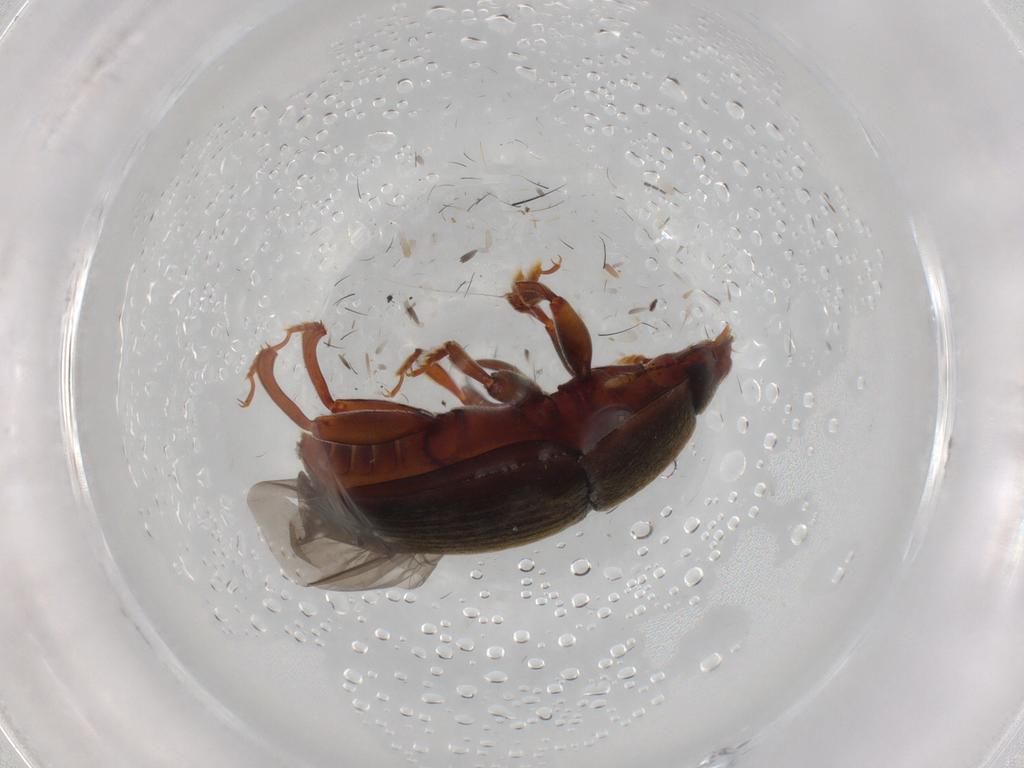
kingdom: Animalia
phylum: Arthropoda
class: Insecta
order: Coleoptera
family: Nitidulidae
